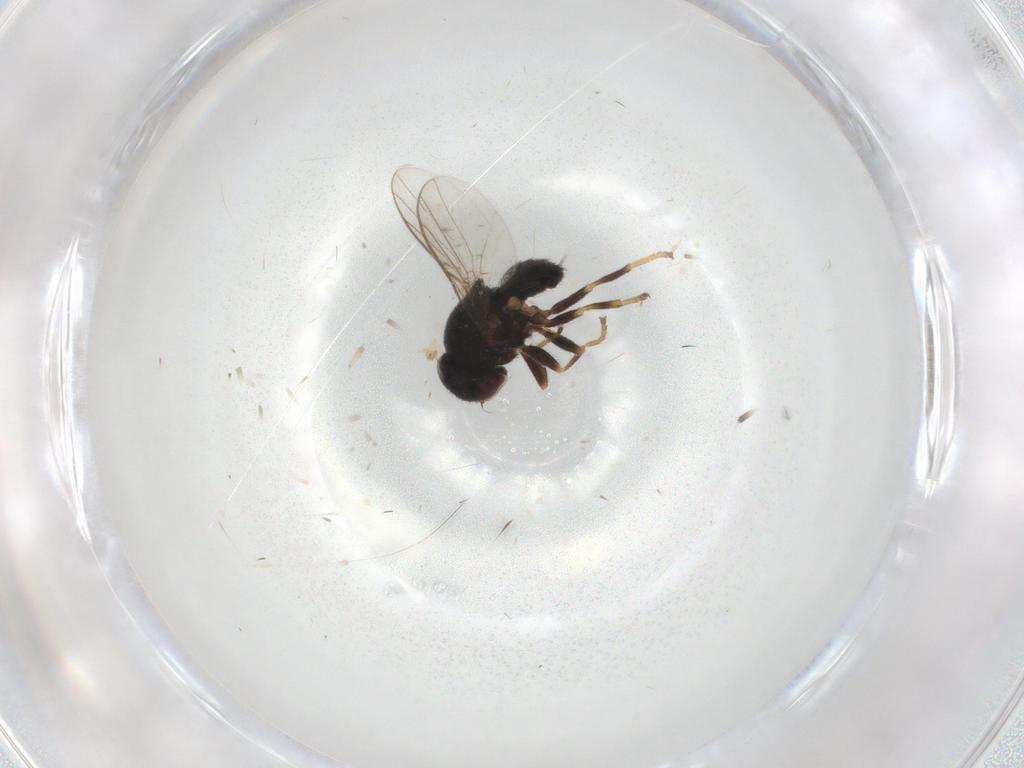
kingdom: Animalia
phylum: Arthropoda
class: Insecta
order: Diptera
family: Chloropidae
